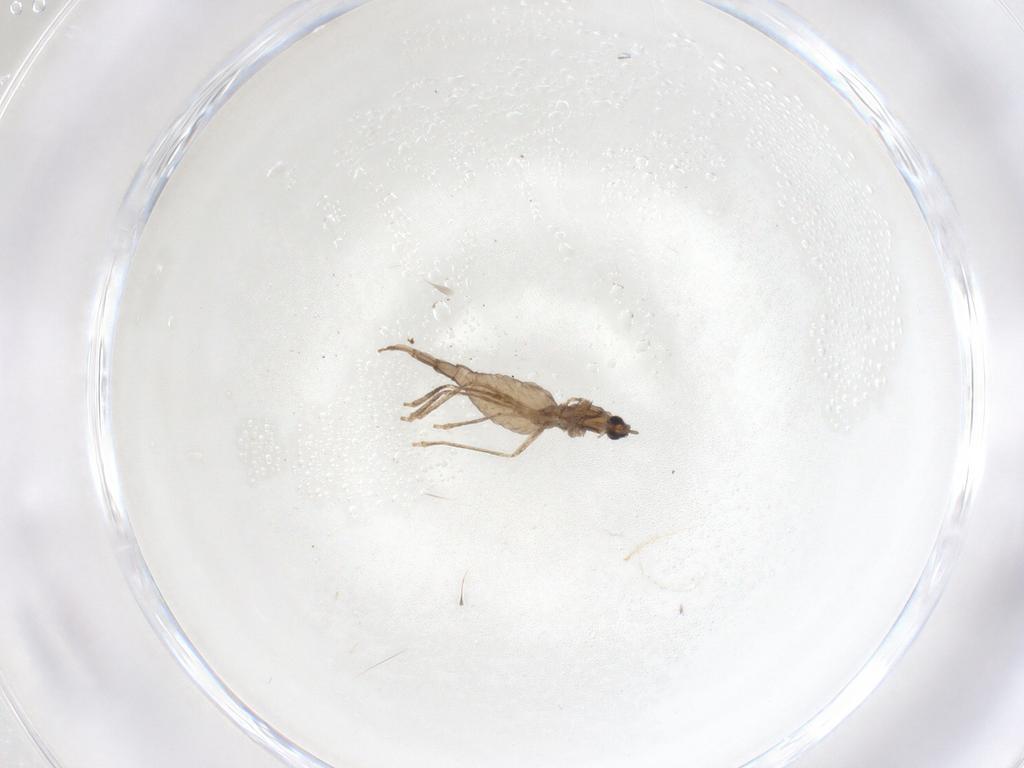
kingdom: Animalia
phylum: Arthropoda
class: Insecta
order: Diptera
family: Cecidomyiidae
